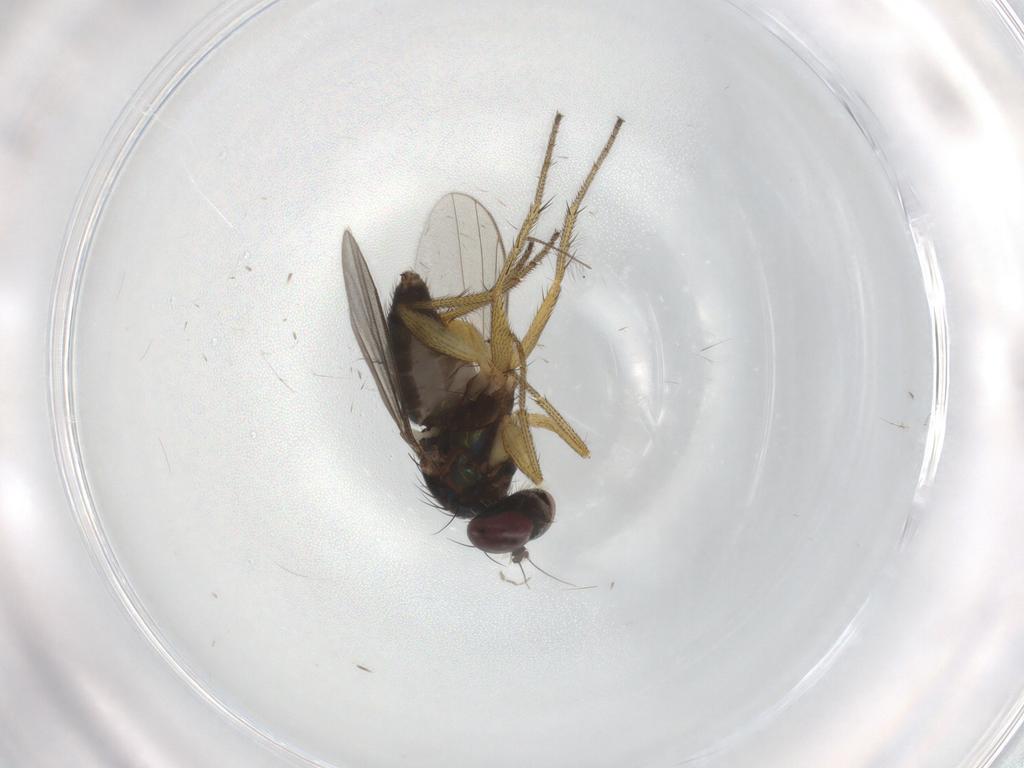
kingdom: Animalia
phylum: Arthropoda
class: Insecta
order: Diptera
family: Dolichopodidae
